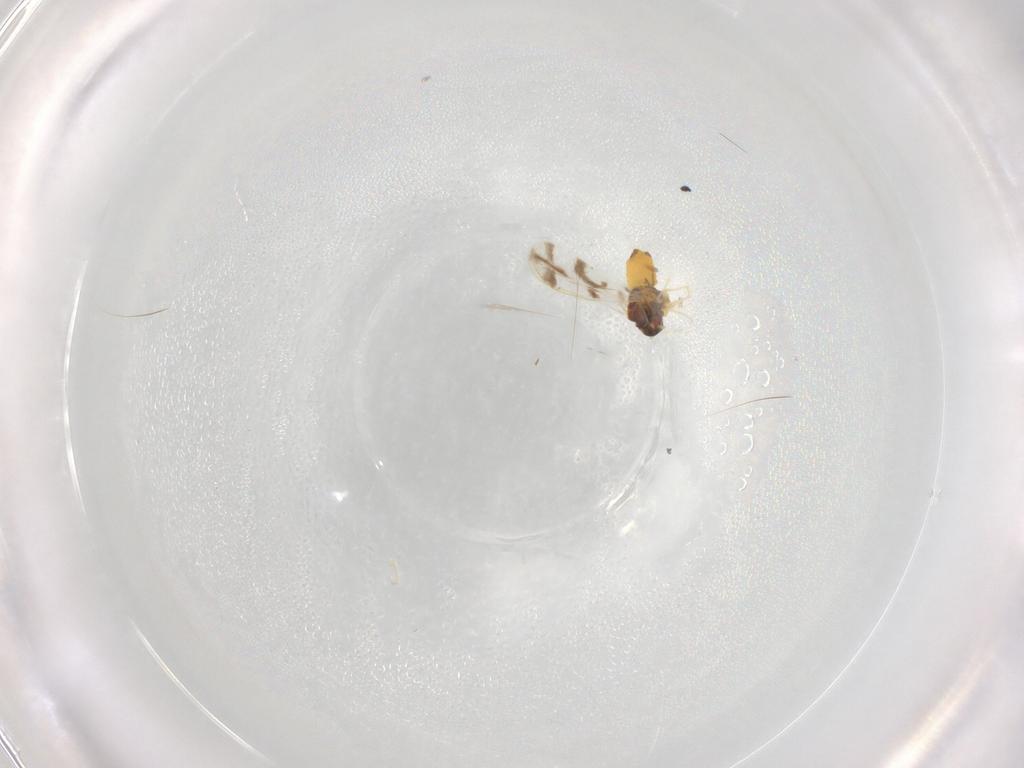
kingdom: Animalia
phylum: Arthropoda
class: Insecta
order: Hemiptera
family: Aleyrodidae
